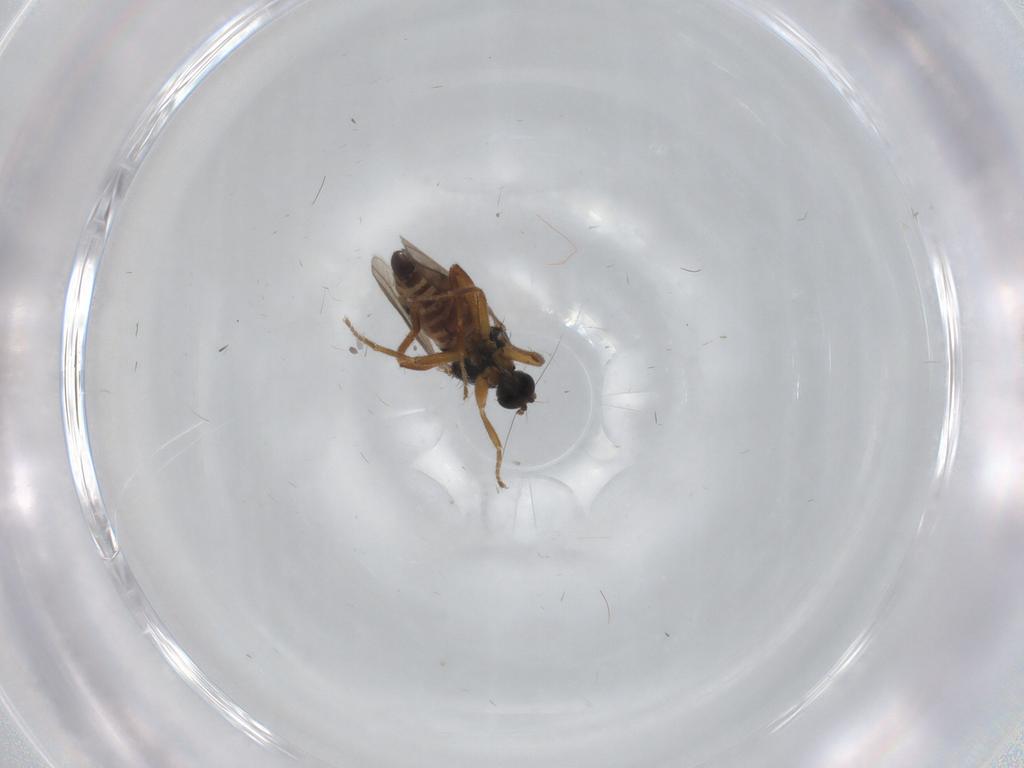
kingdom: Animalia
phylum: Arthropoda
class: Insecta
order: Diptera
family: Hybotidae
